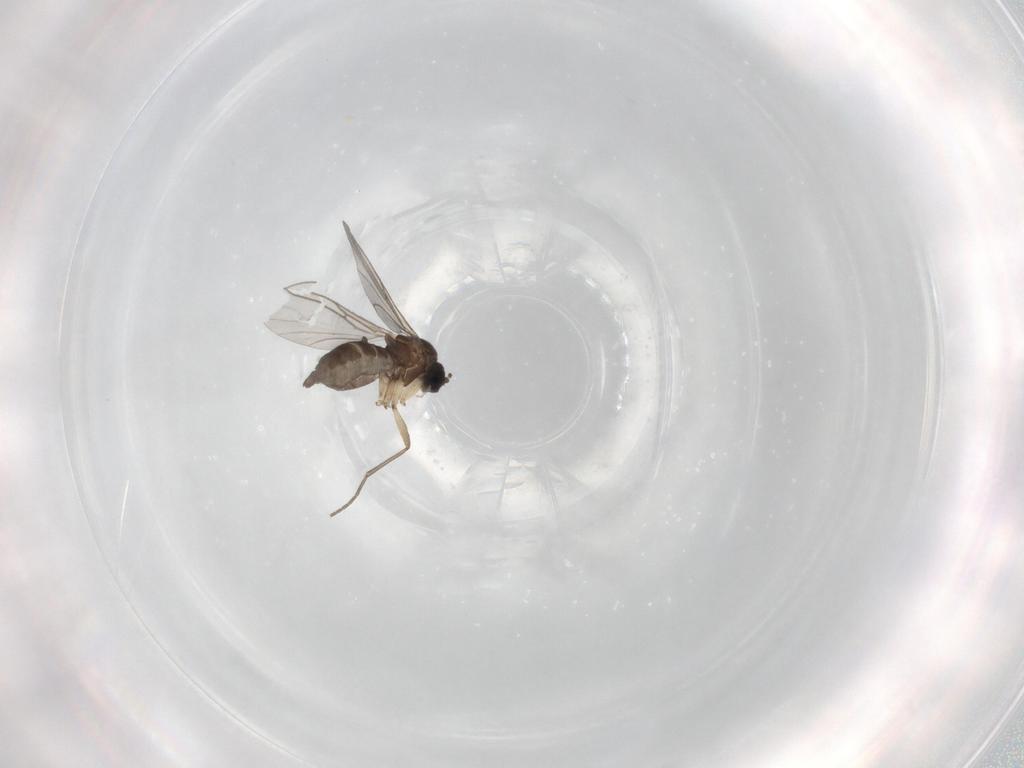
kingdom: Animalia
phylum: Arthropoda
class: Insecta
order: Diptera
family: Sciaridae
